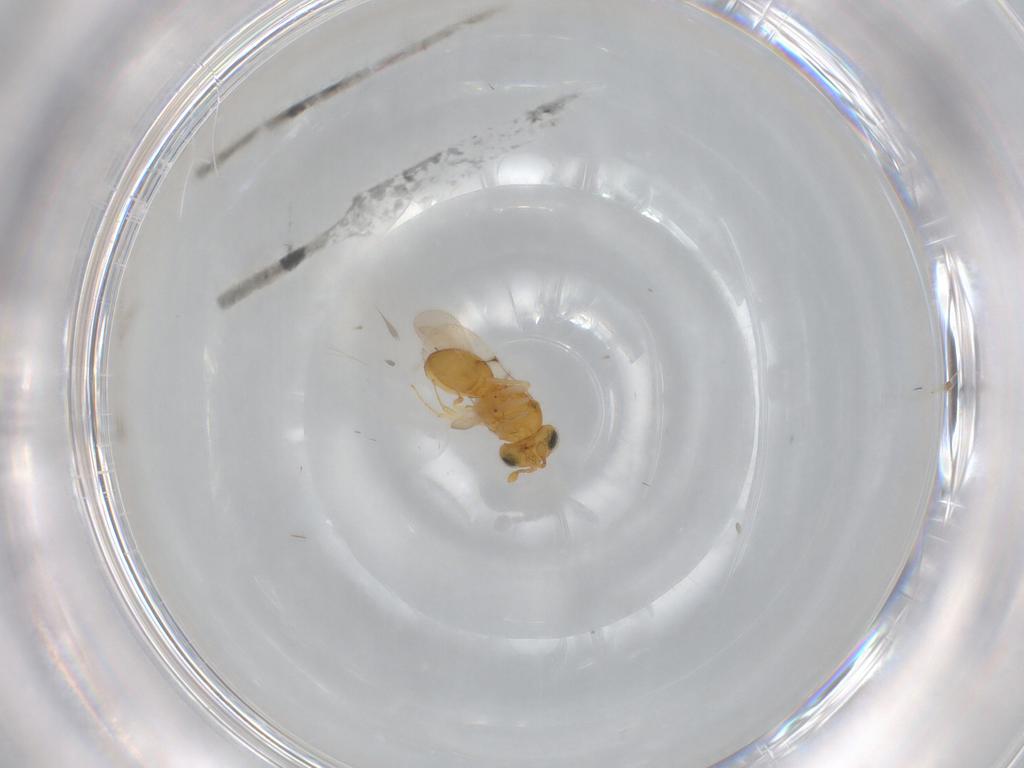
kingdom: Animalia
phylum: Arthropoda
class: Insecta
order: Hymenoptera
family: Scelionidae
